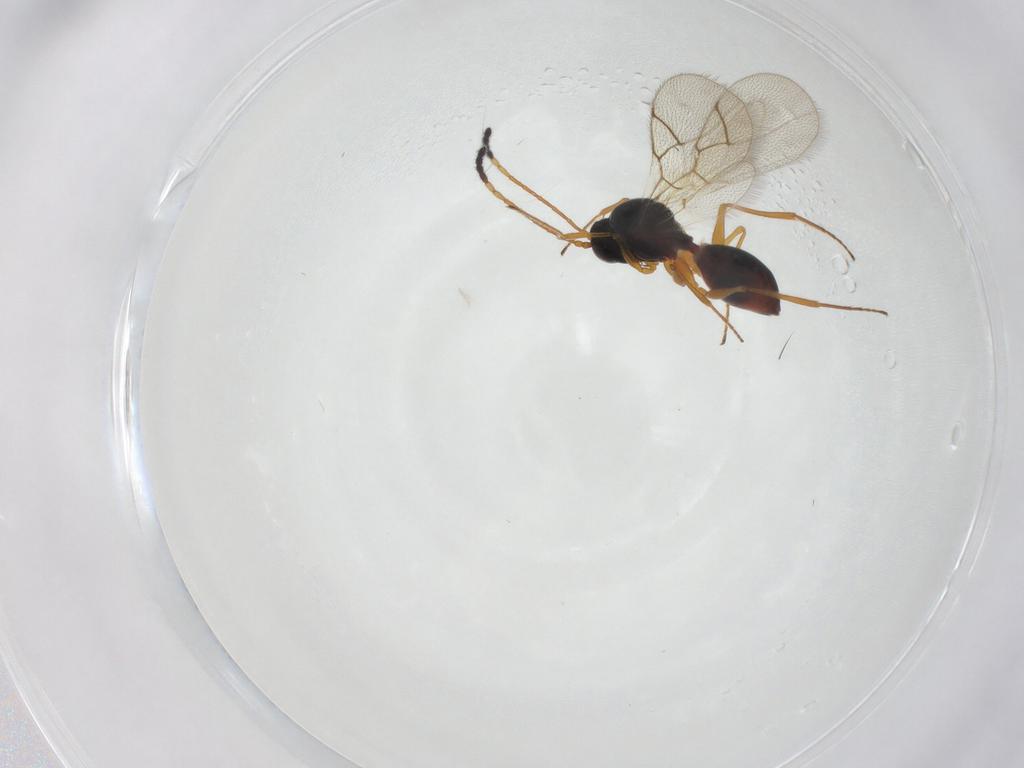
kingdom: Animalia
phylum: Arthropoda
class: Insecta
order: Hymenoptera
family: Figitidae
